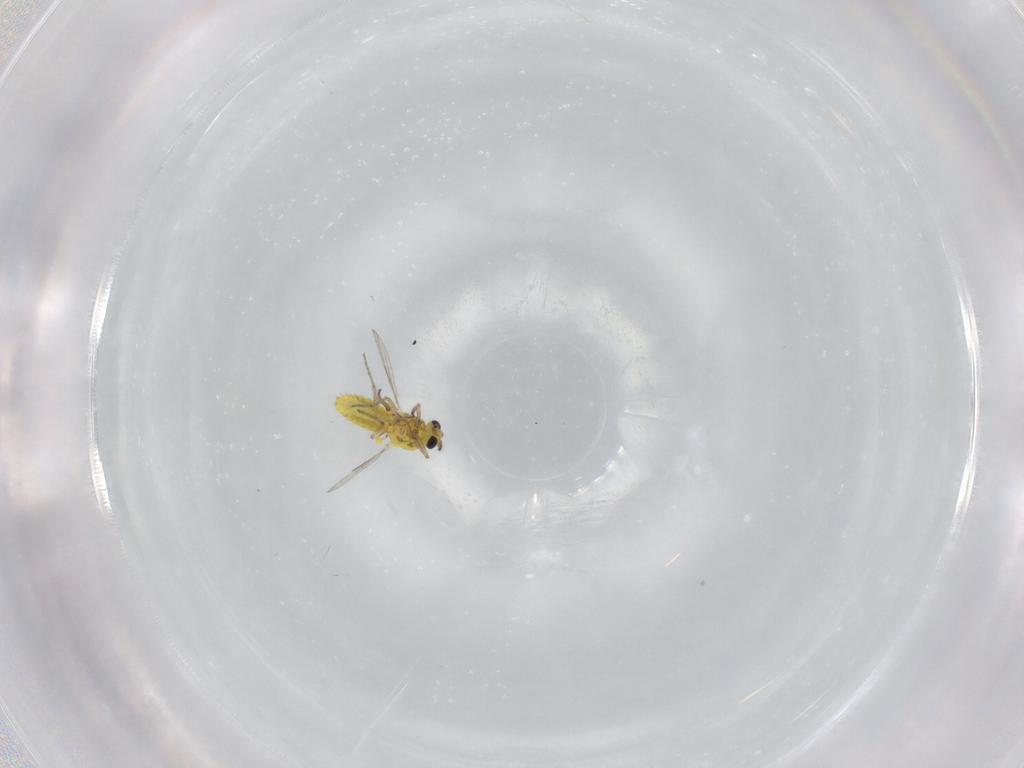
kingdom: Animalia
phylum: Arthropoda
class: Insecta
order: Diptera
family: Ceratopogonidae
